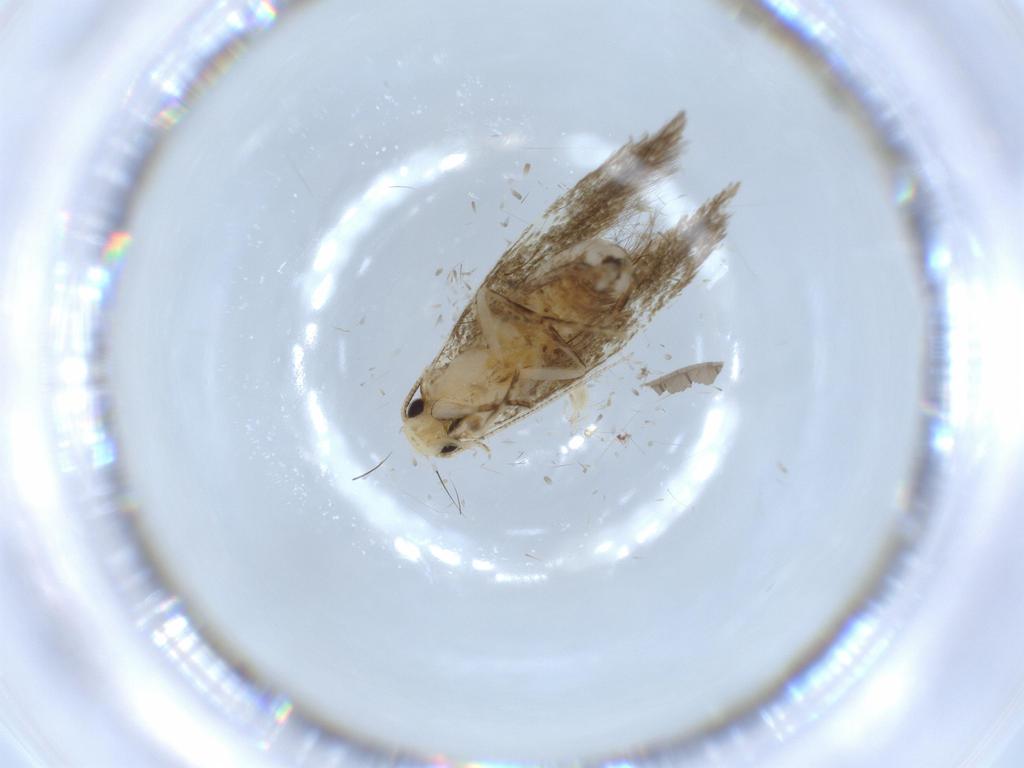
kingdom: Animalia
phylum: Arthropoda
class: Insecta
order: Lepidoptera
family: Tineidae
